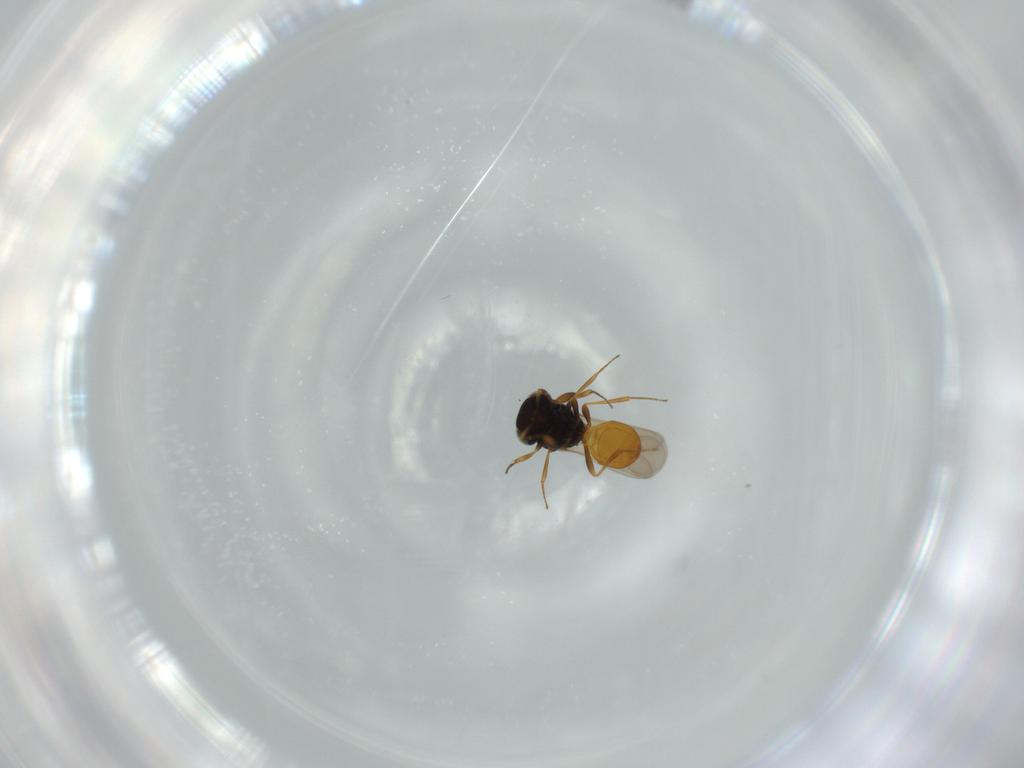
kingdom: Animalia
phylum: Arthropoda
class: Insecta
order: Hymenoptera
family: Scelionidae
